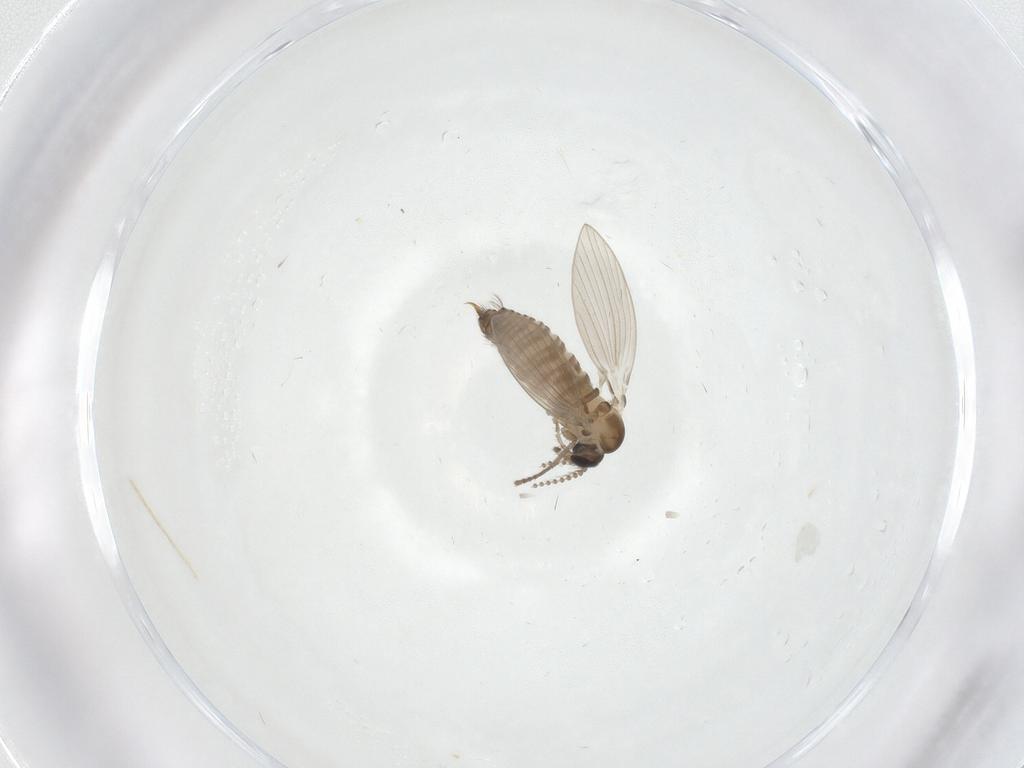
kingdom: Animalia
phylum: Arthropoda
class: Insecta
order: Diptera
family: Psychodidae
